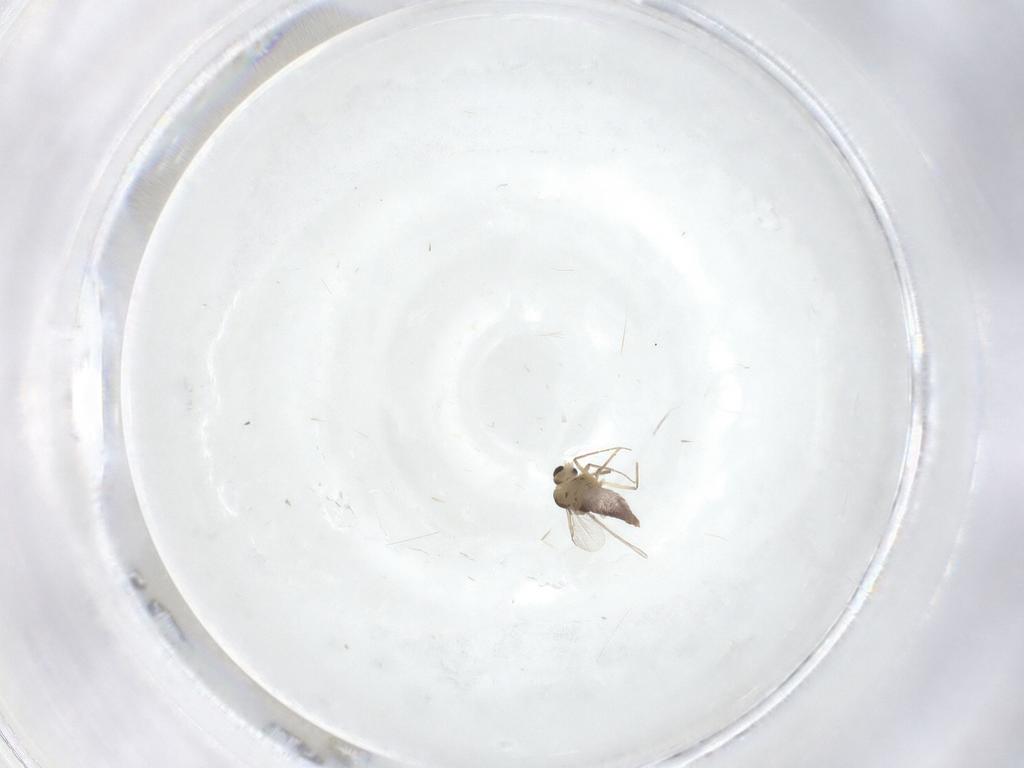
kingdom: Animalia
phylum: Arthropoda
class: Insecta
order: Diptera
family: Chironomidae
